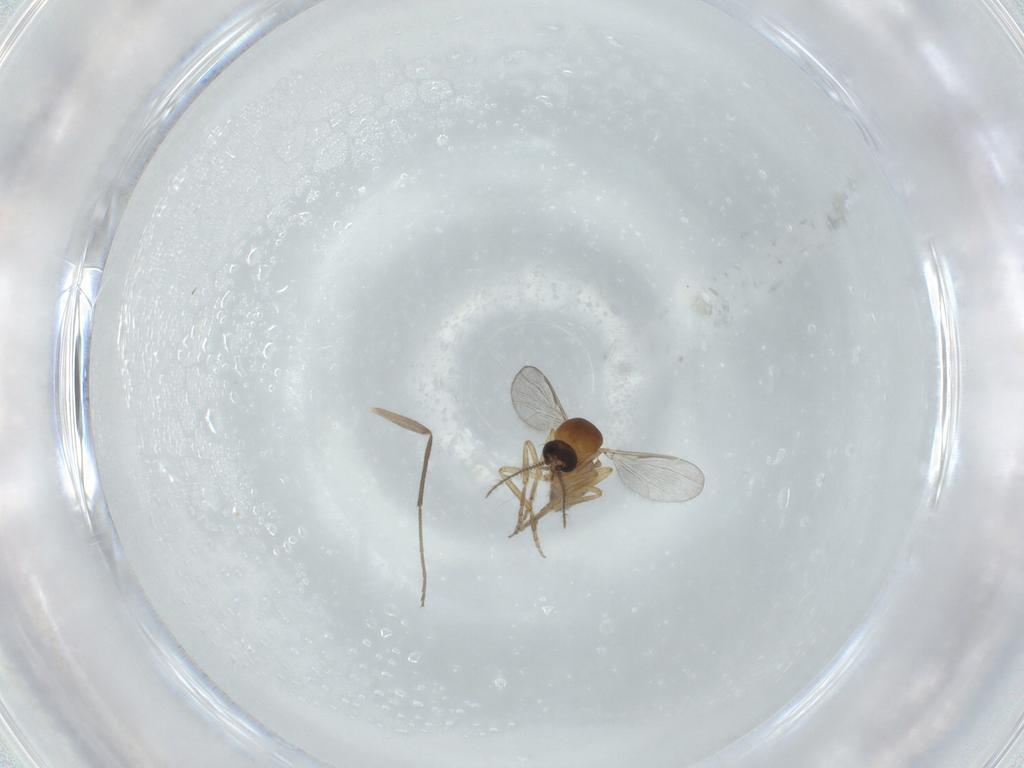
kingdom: Animalia
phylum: Arthropoda
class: Insecta
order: Diptera
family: Ceratopogonidae
